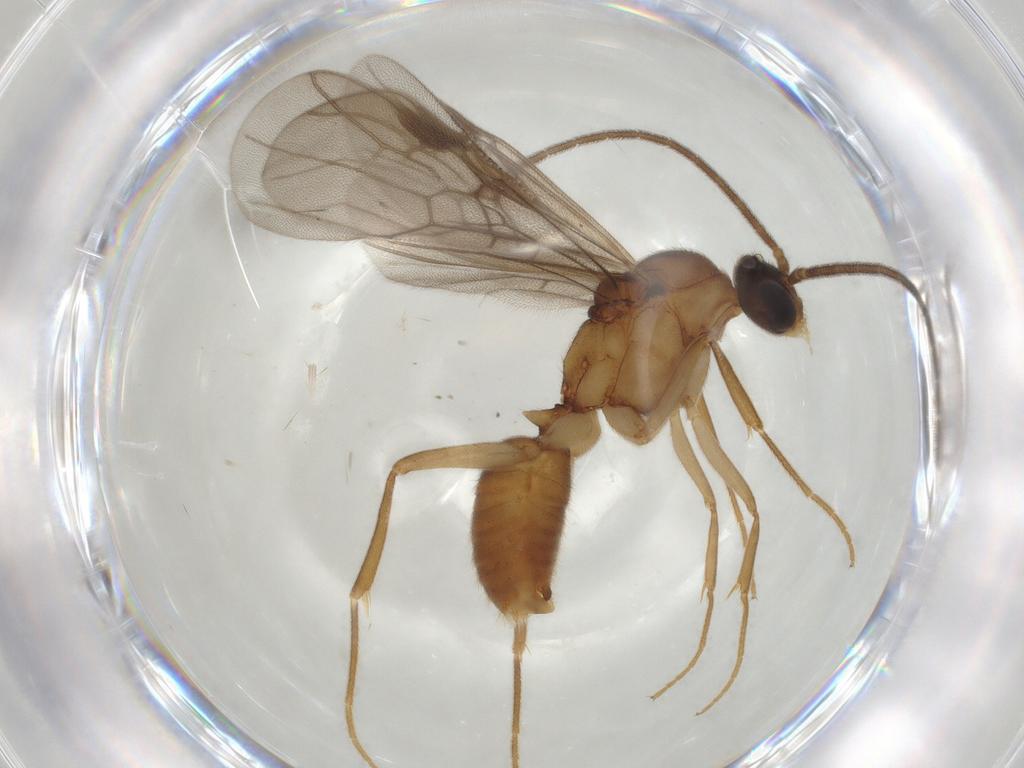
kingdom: Animalia
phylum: Arthropoda
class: Insecta
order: Hymenoptera
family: Formicidae
